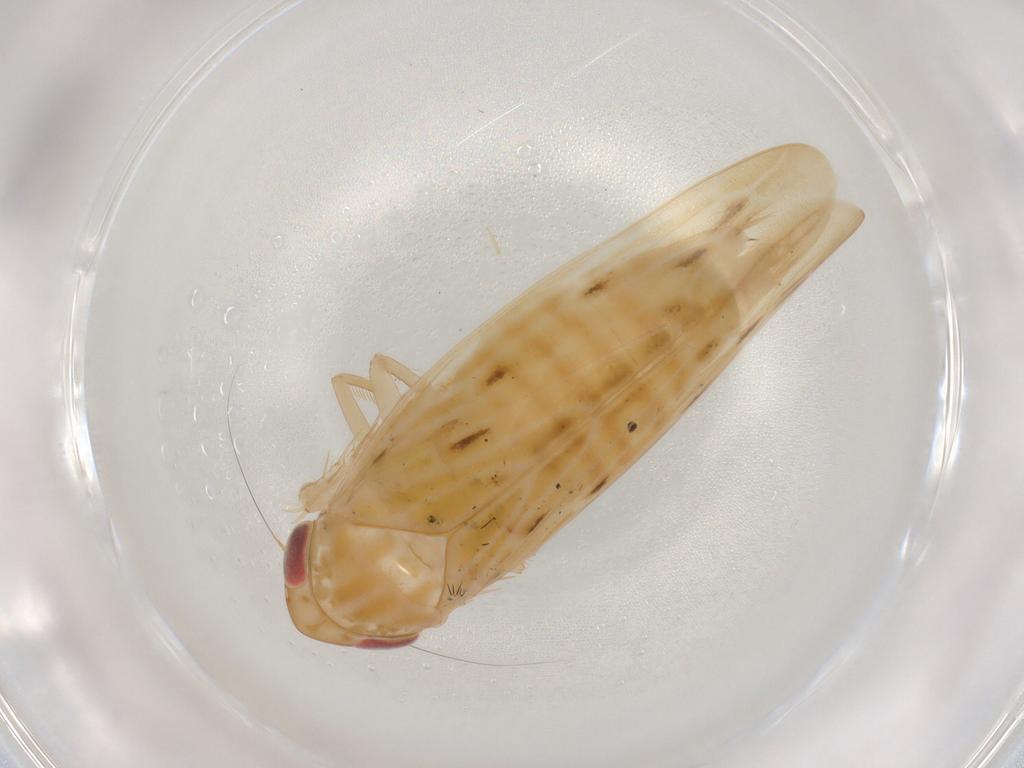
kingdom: Animalia
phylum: Arthropoda
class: Insecta
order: Hemiptera
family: Cicadellidae
